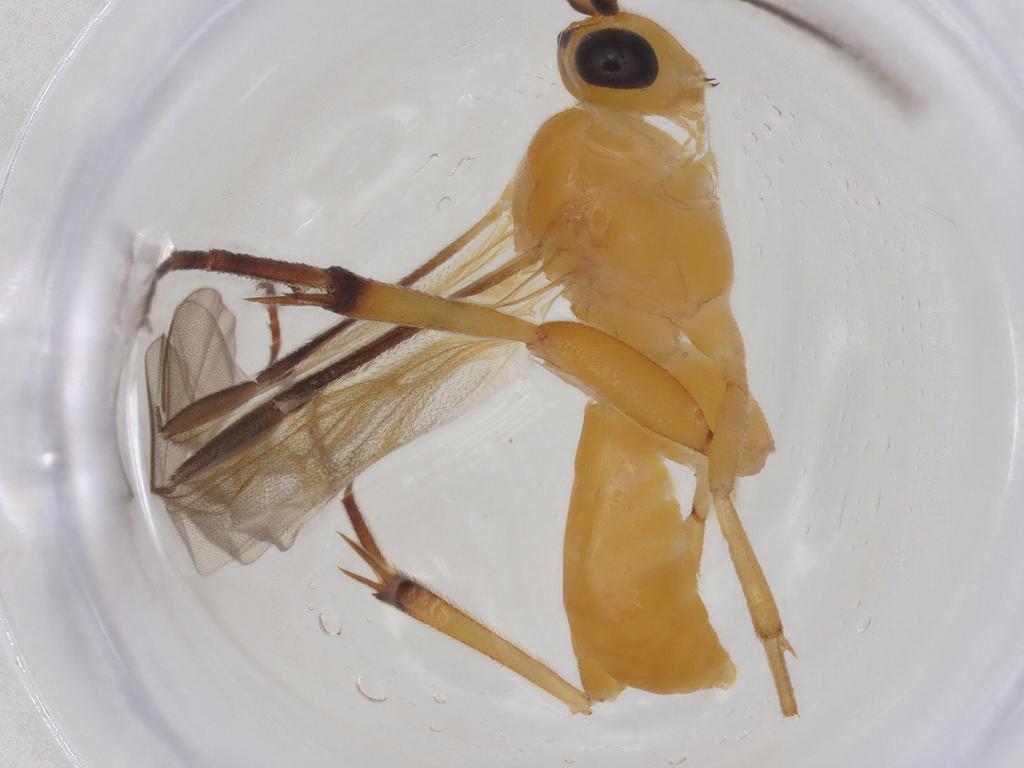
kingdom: Animalia
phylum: Arthropoda
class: Insecta
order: Hymenoptera
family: Braconidae
